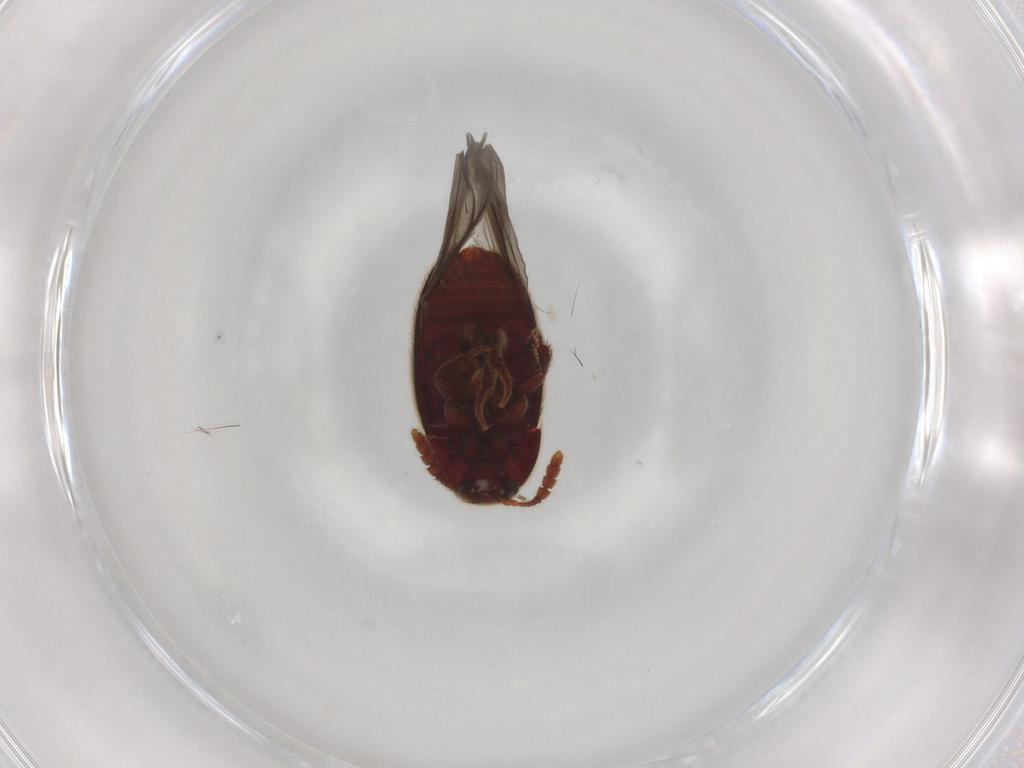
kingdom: Animalia
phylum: Arthropoda
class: Insecta
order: Coleoptera
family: Leiodidae
